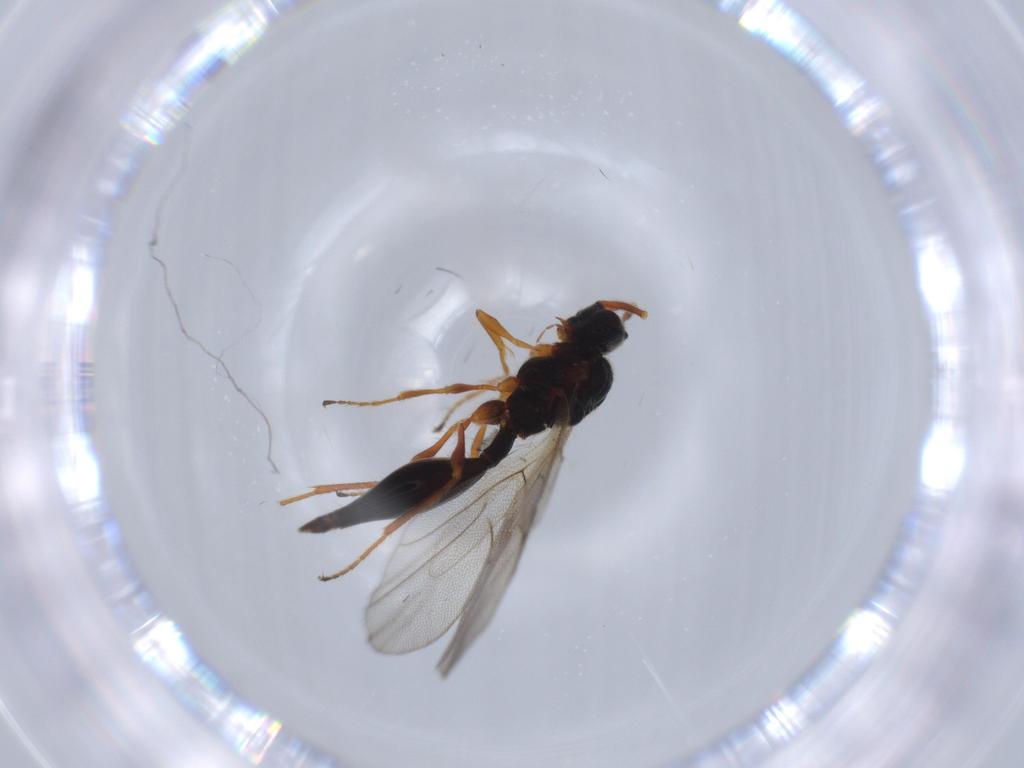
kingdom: Animalia
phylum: Arthropoda
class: Insecta
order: Hymenoptera
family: Diapriidae
